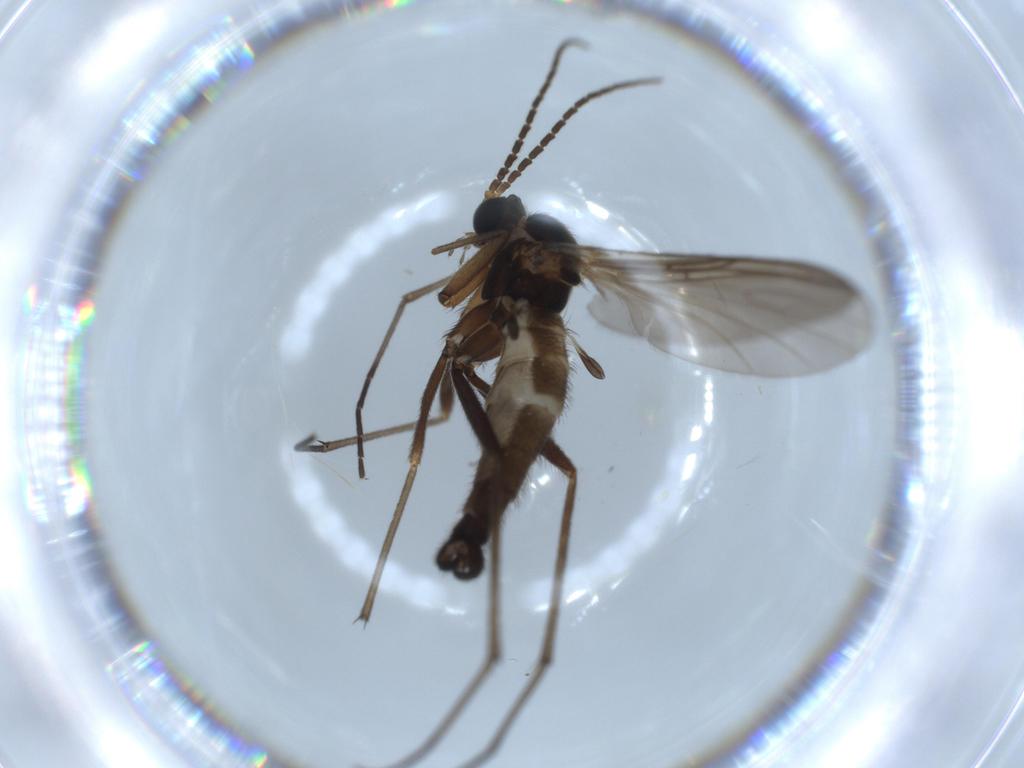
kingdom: Animalia
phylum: Arthropoda
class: Insecta
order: Diptera
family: Sciaridae
